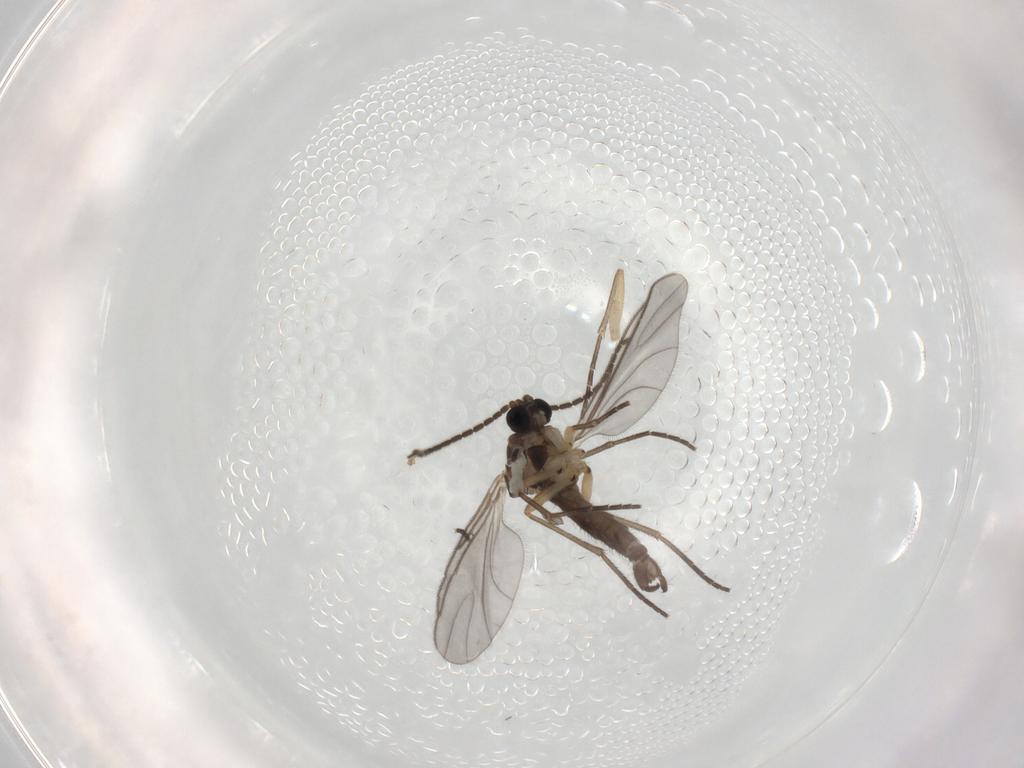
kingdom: Animalia
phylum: Arthropoda
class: Insecta
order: Diptera
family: Sciaridae
